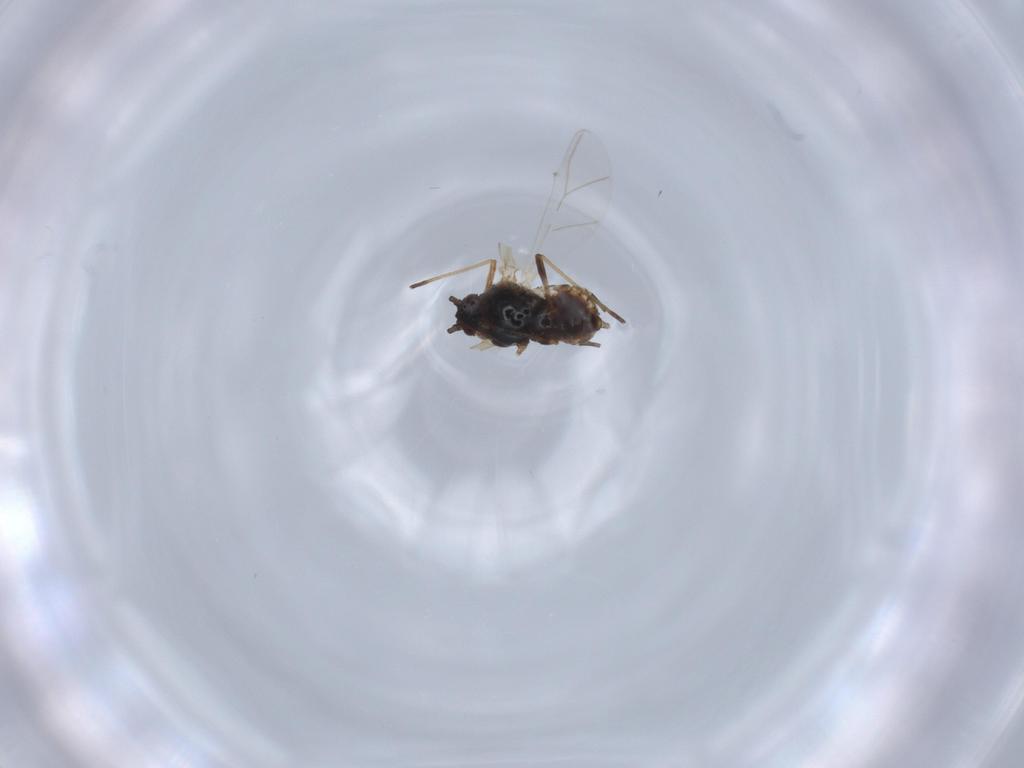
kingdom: Animalia
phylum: Arthropoda
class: Insecta
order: Hemiptera
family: Aphididae
